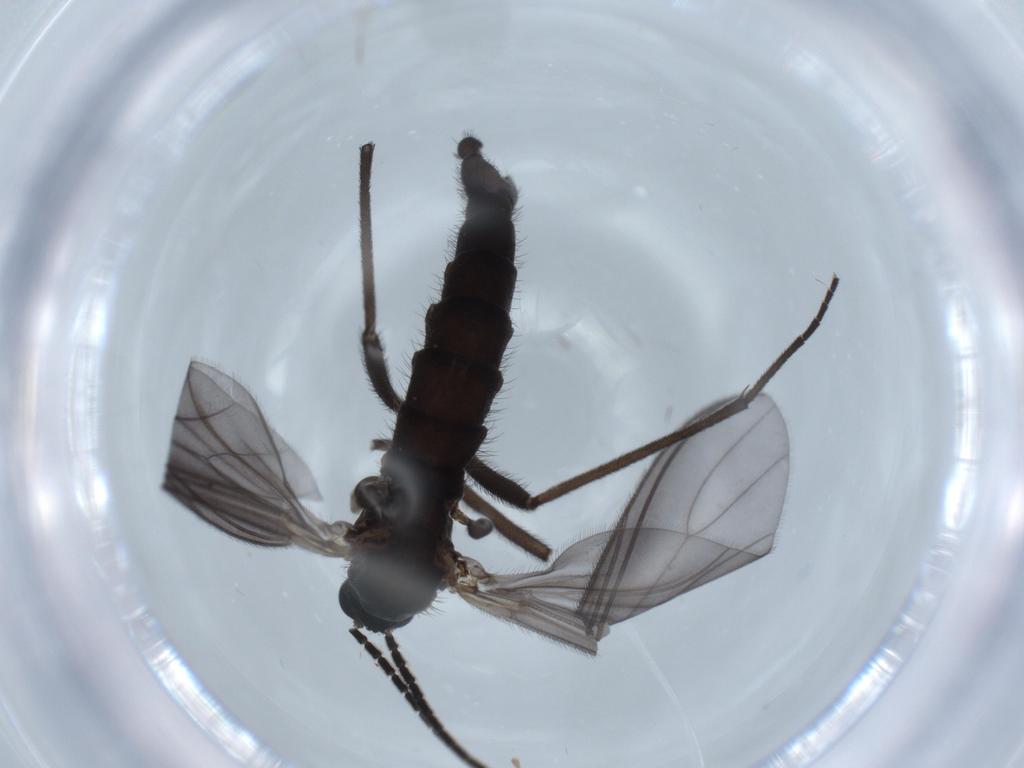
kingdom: Animalia
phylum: Arthropoda
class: Insecta
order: Diptera
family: Sciaridae
